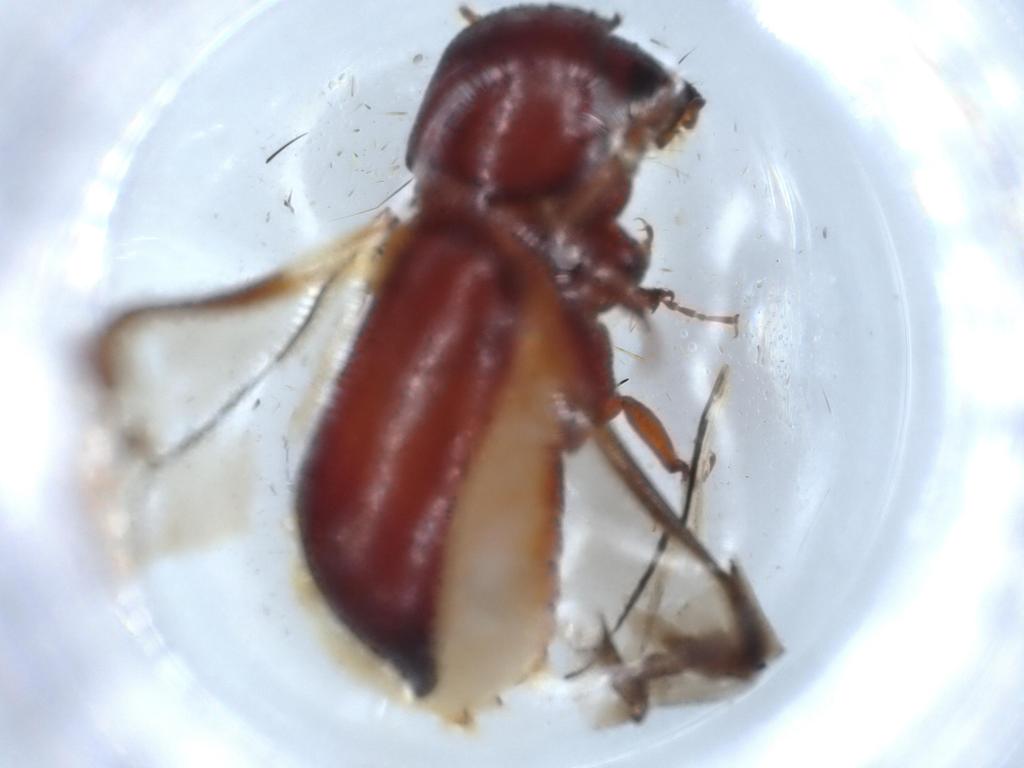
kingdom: Animalia
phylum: Arthropoda
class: Insecta
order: Coleoptera
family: Bostrichidae
